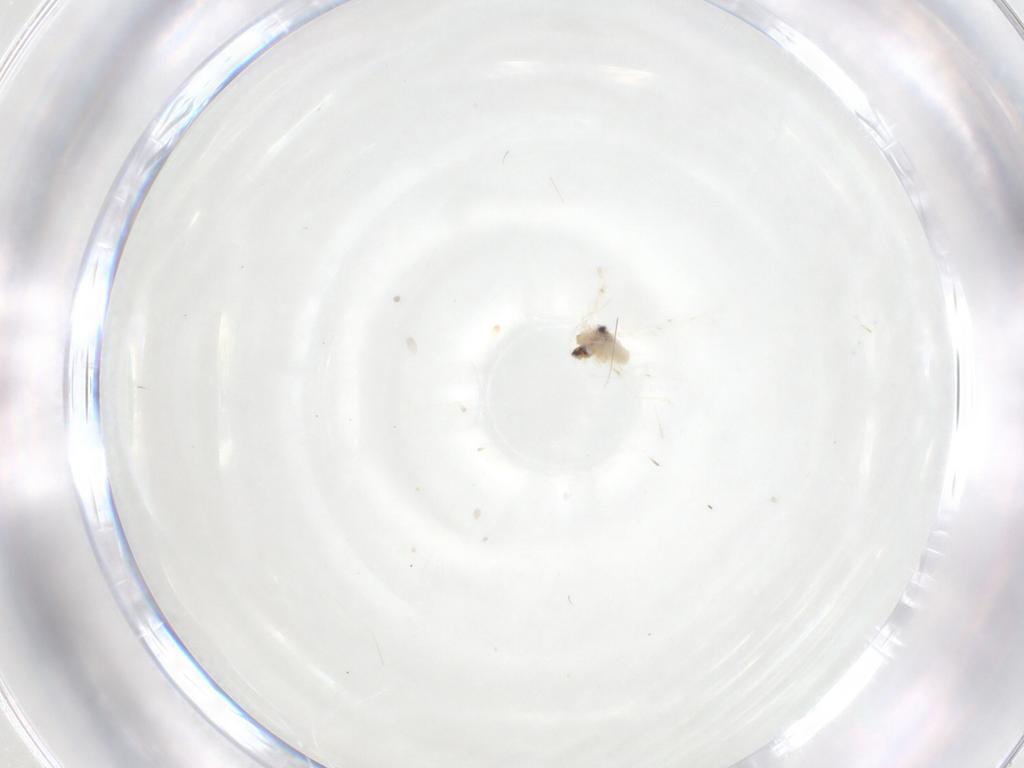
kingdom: Animalia
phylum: Arthropoda
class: Insecta
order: Diptera
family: Cecidomyiidae
